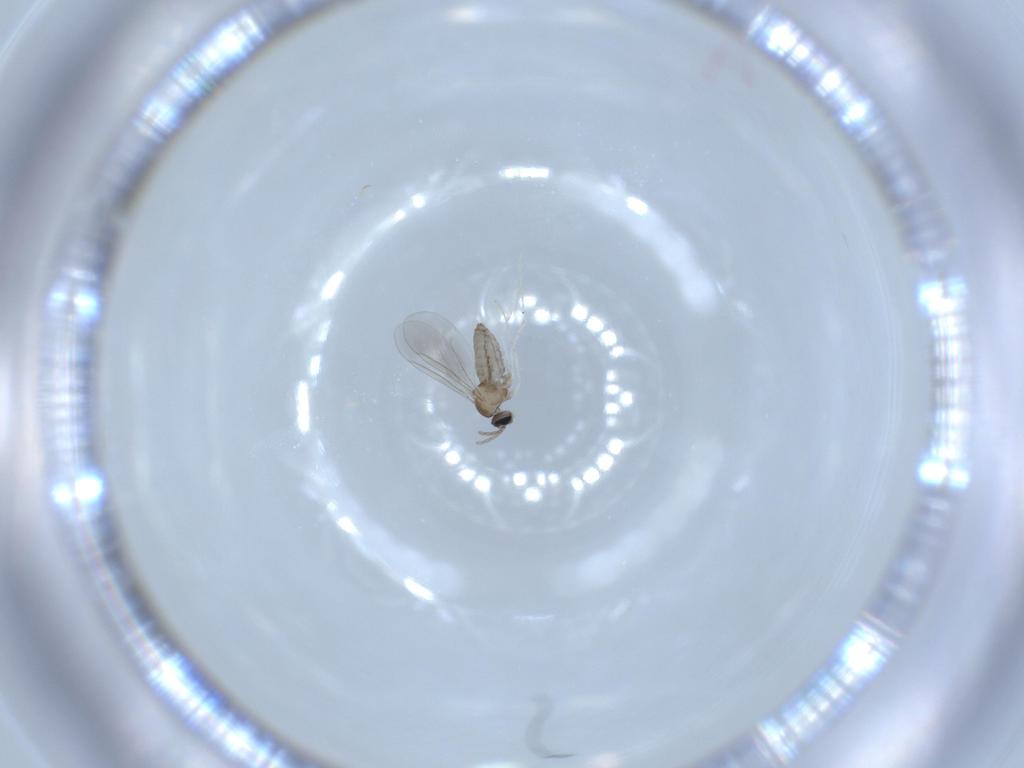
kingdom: Animalia
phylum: Arthropoda
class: Insecta
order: Diptera
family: Cecidomyiidae
